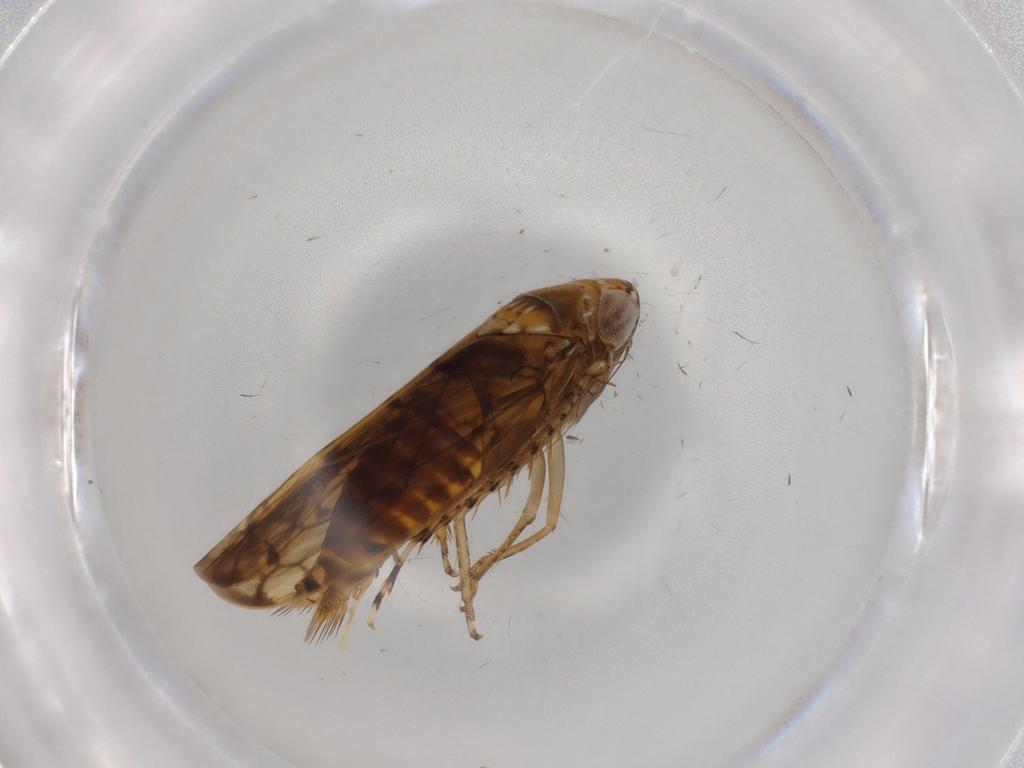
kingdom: Animalia
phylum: Arthropoda
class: Insecta
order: Hemiptera
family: Cicadellidae
